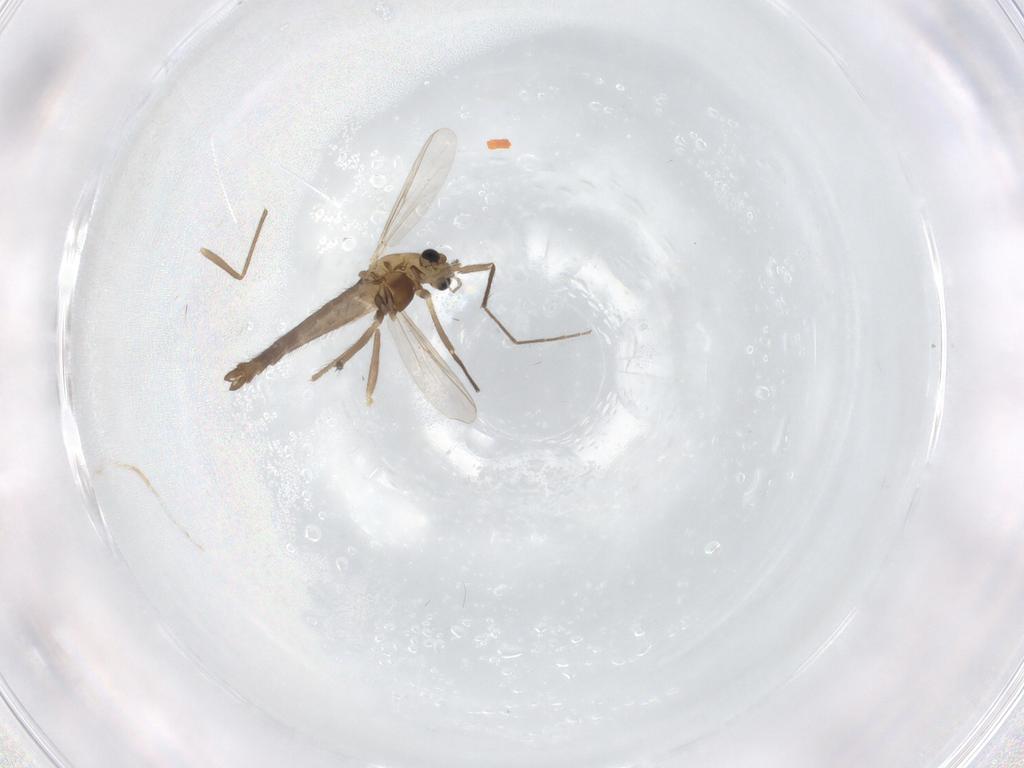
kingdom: Animalia
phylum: Arthropoda
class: Insecta
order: Diptera
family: Chironomidae
